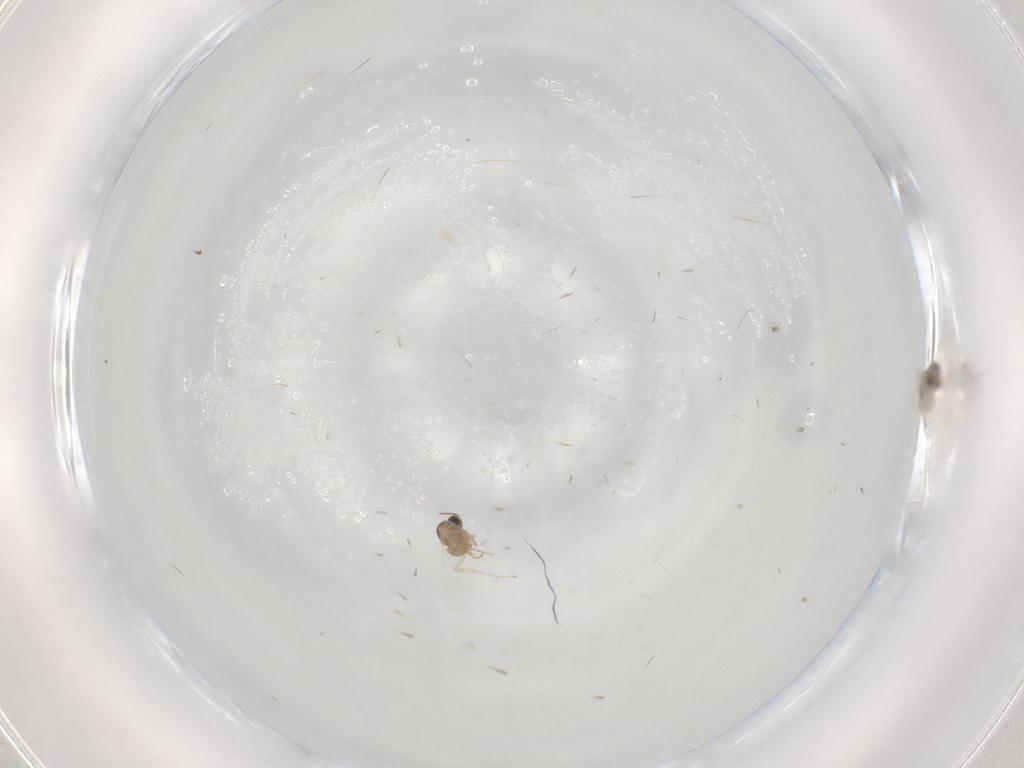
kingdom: Animalia
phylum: Arthropoda
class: Insecta
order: Diptera
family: Cecidomyiidae
